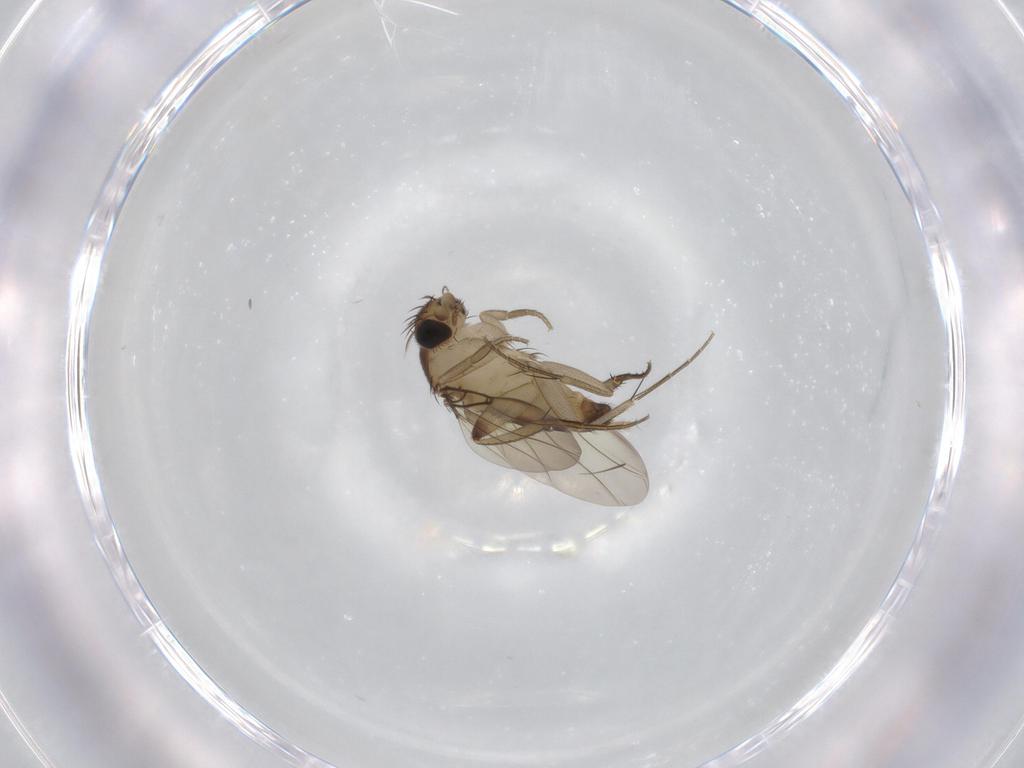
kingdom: Animalia
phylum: Arthropoda
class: Insecta
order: Diptera
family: Phoridae
